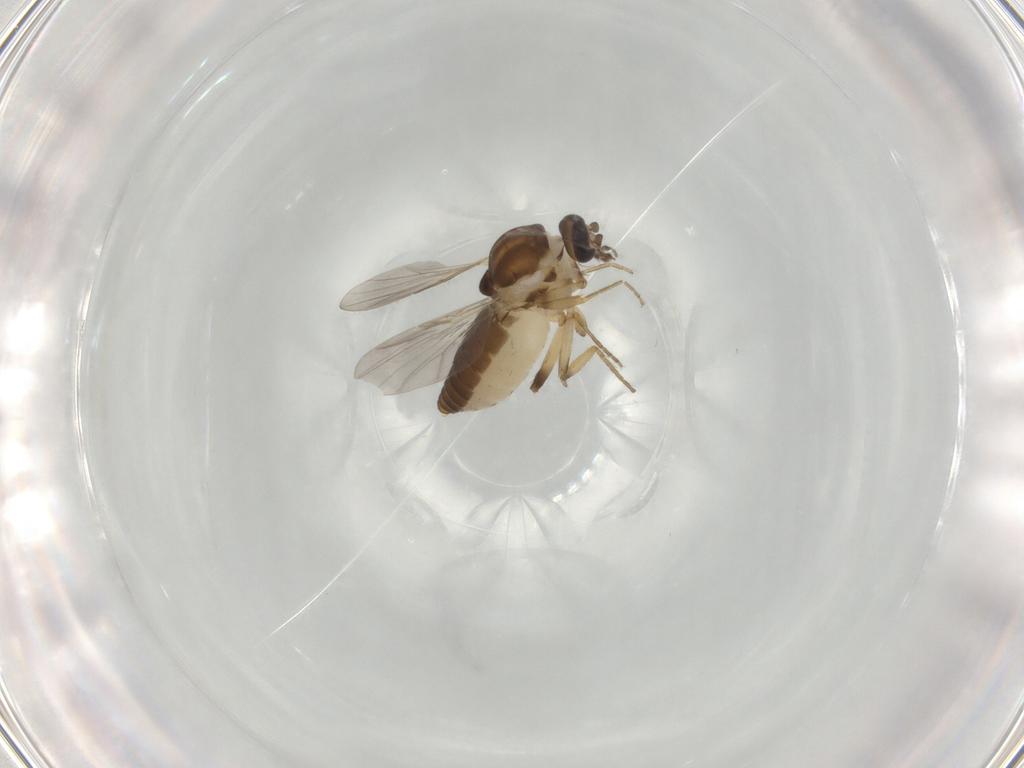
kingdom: Animalia
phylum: Arthropoda
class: Insecta
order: Diptera
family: Ceratopogonidae
